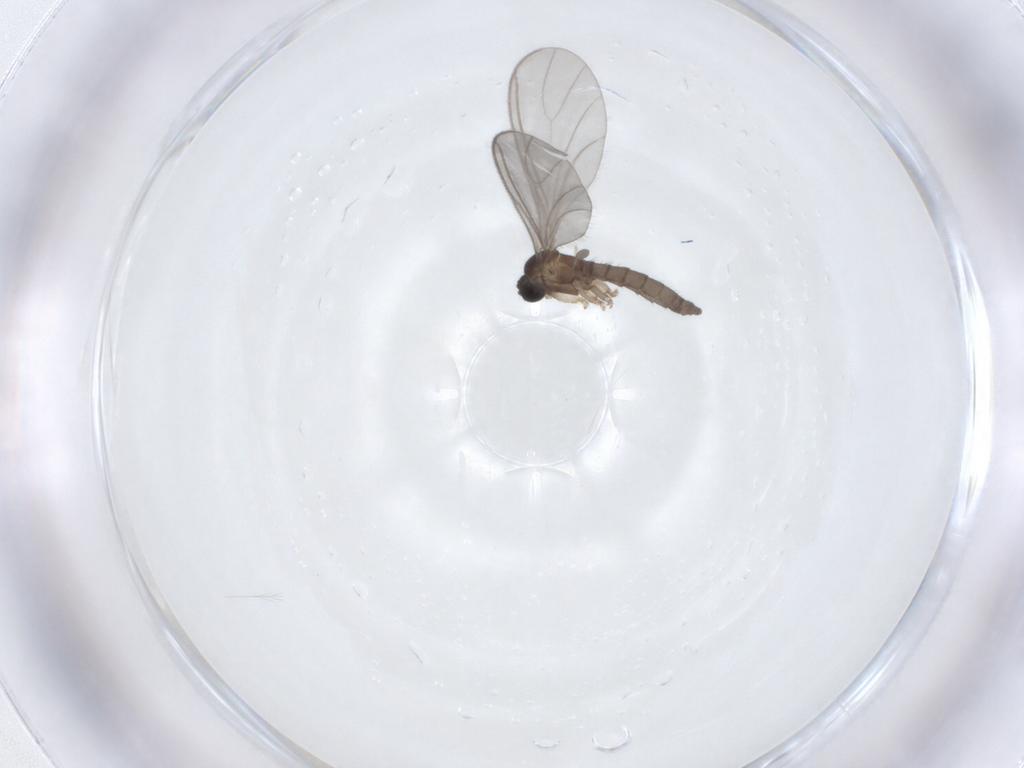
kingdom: Animalia
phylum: Arthropoda
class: Insecta
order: Diptera
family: Sciaridae
